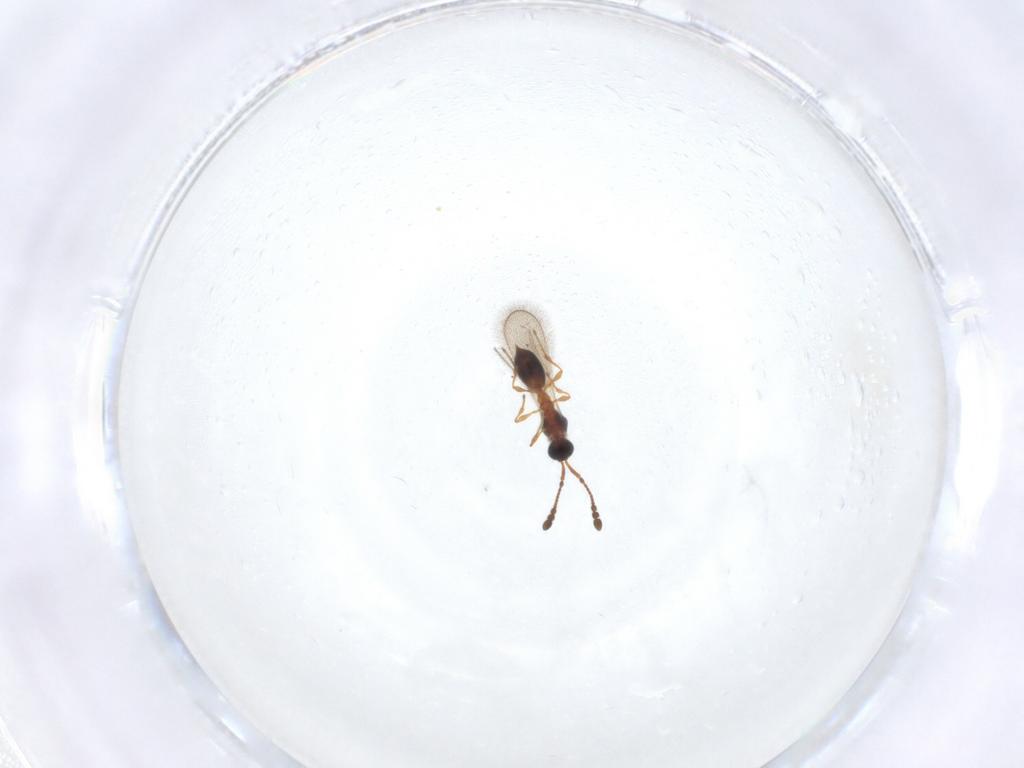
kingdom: Animalia
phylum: Arthropoda
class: Insecta
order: Hymenoptera
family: Diapriidae
